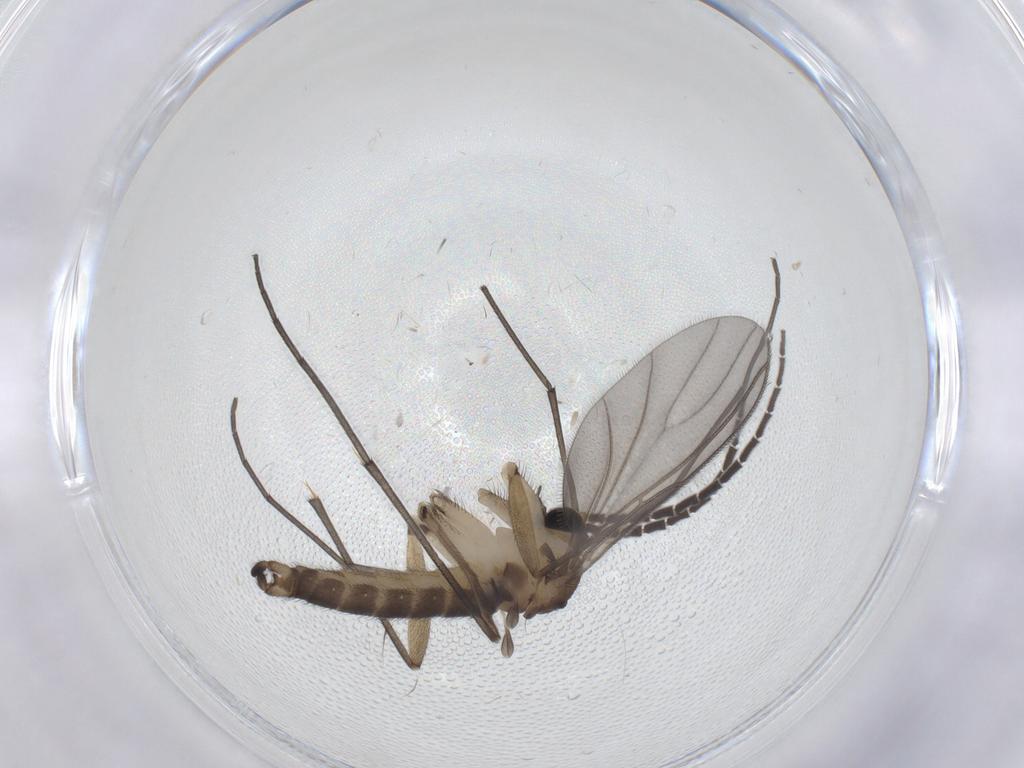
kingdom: Animalia
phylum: Arthropoda
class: Insecta
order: Diptera
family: Sciaridae
